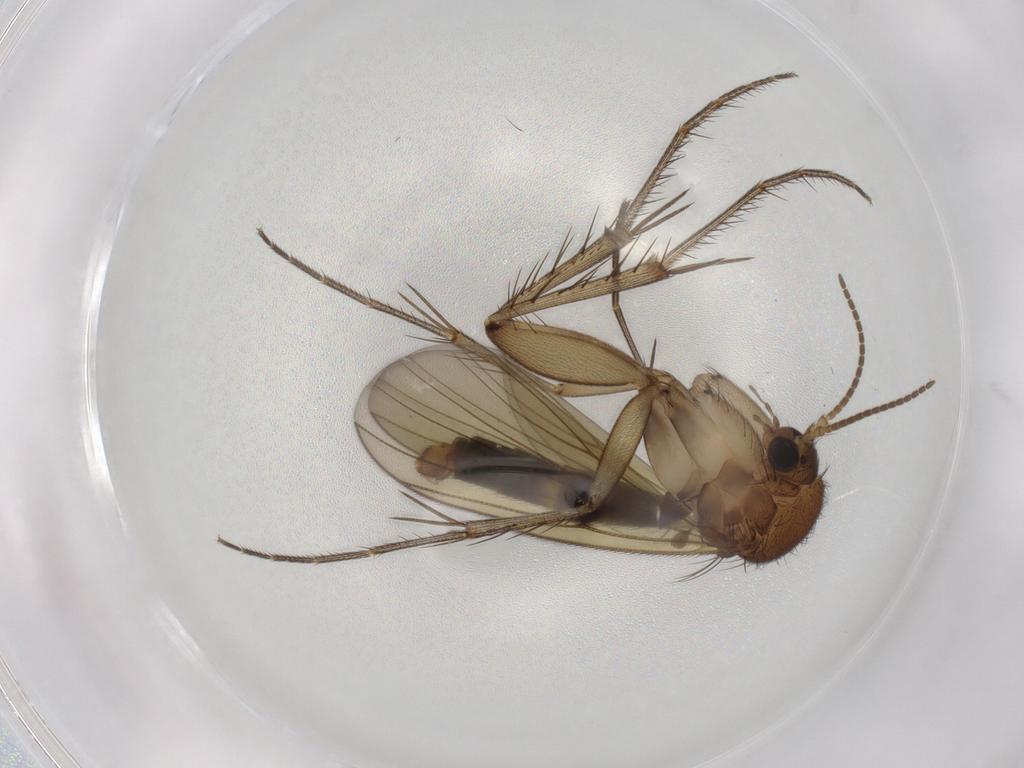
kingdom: Animalia
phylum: Arthropoda
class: Insecta
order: Diptera
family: Mycetophilidae
